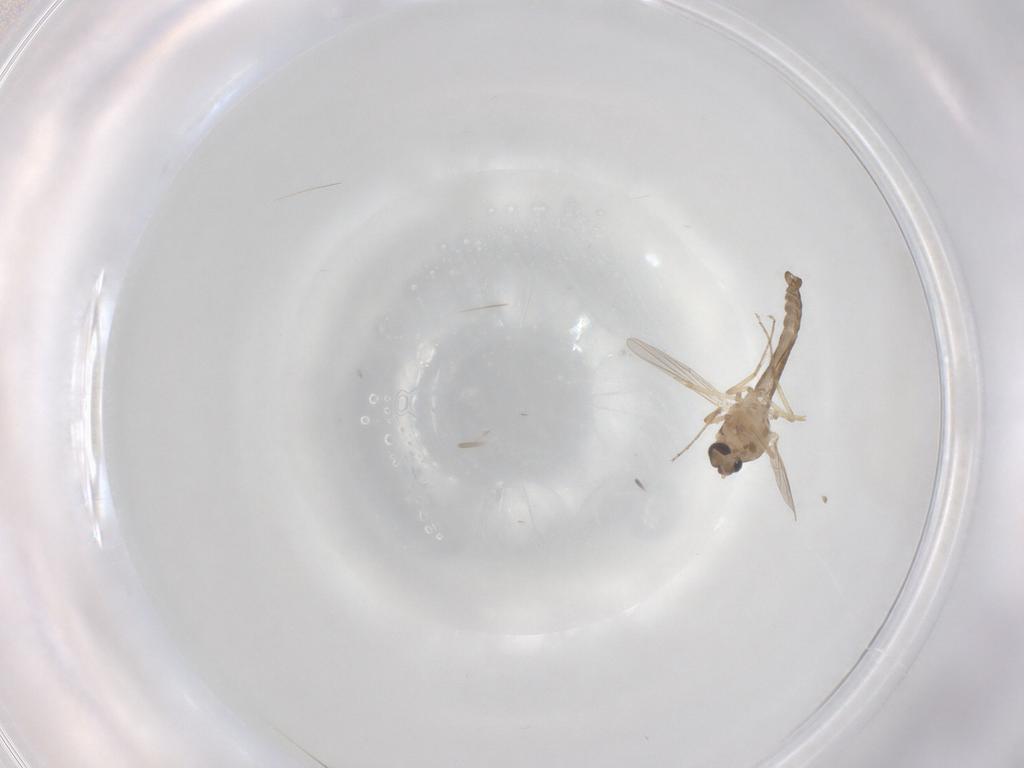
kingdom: Animalia
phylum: Arthropoda
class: Insecta
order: Diptera
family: Ceratopogonidae
